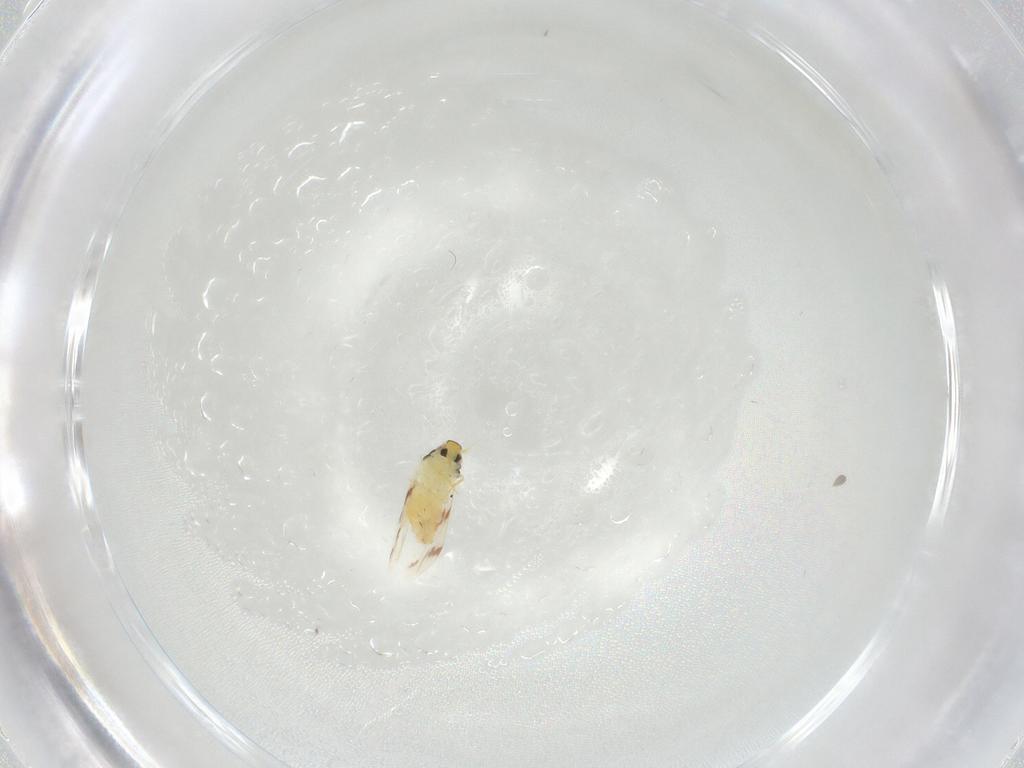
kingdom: Animalia
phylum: Arthropoda
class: Insecta
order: Hemiptera
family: Aleyrodidae
